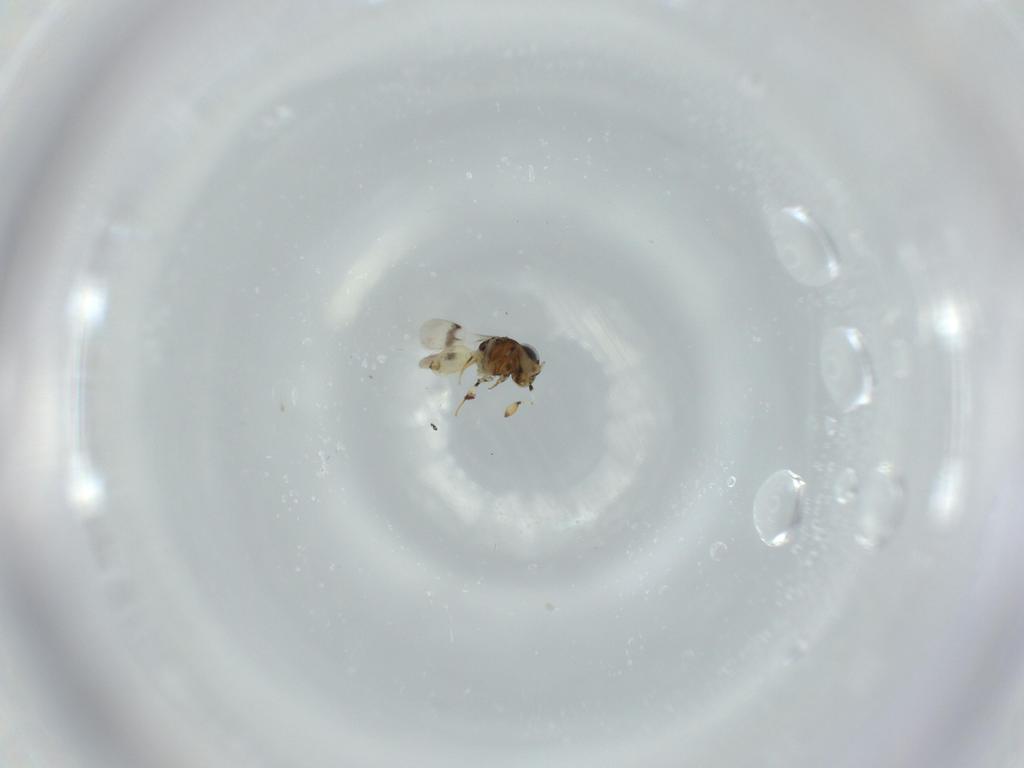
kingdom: Animalia
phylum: Arthropoda
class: Insecta
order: Hymenoptera
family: Scelionidae
